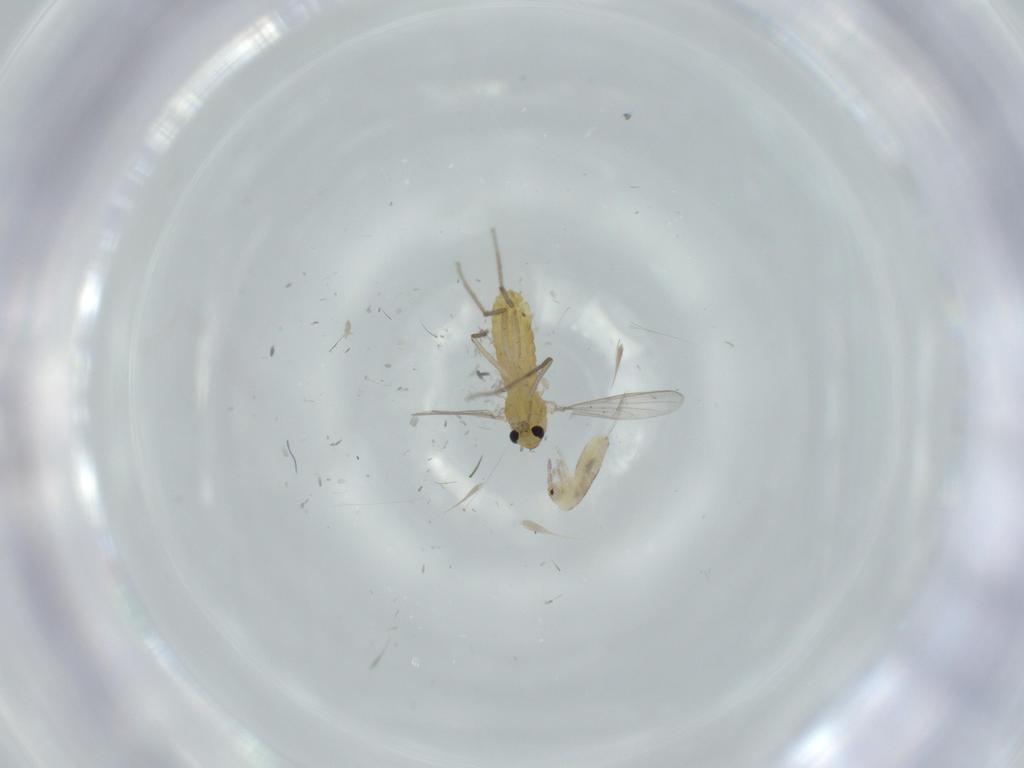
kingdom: Animalia
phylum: Arthropoda
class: Insecta
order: Diptera
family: Chironomidae
